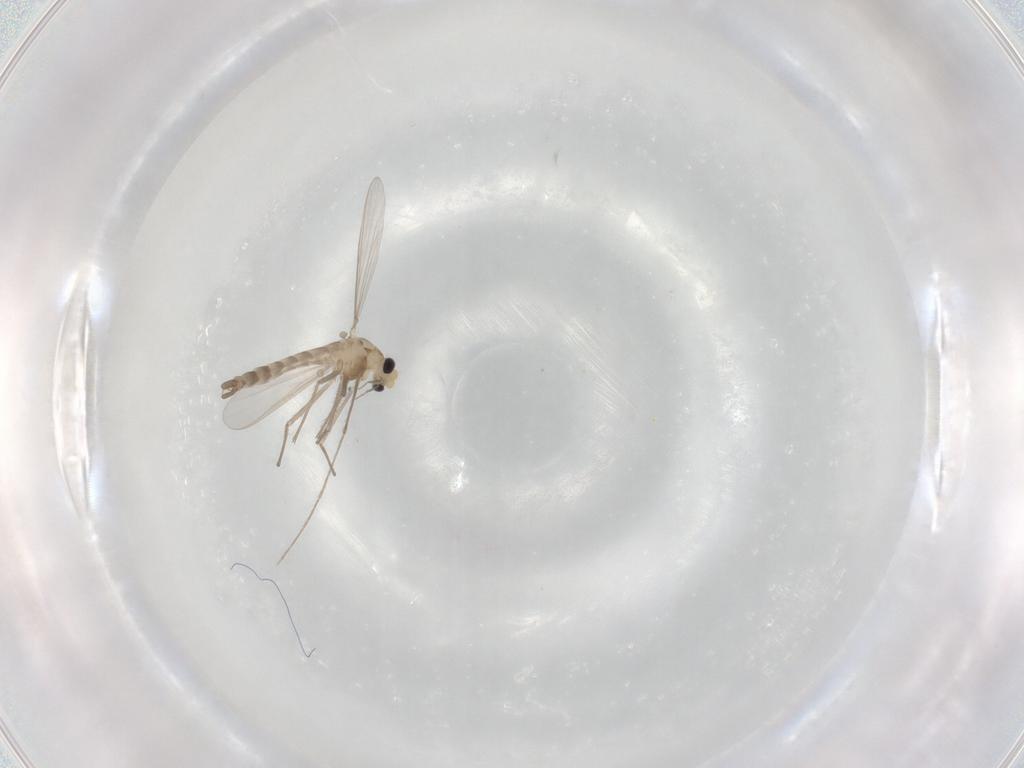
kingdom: Animalia
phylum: Arthropoda
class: Insecta
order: Diptera
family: Chironomidae
